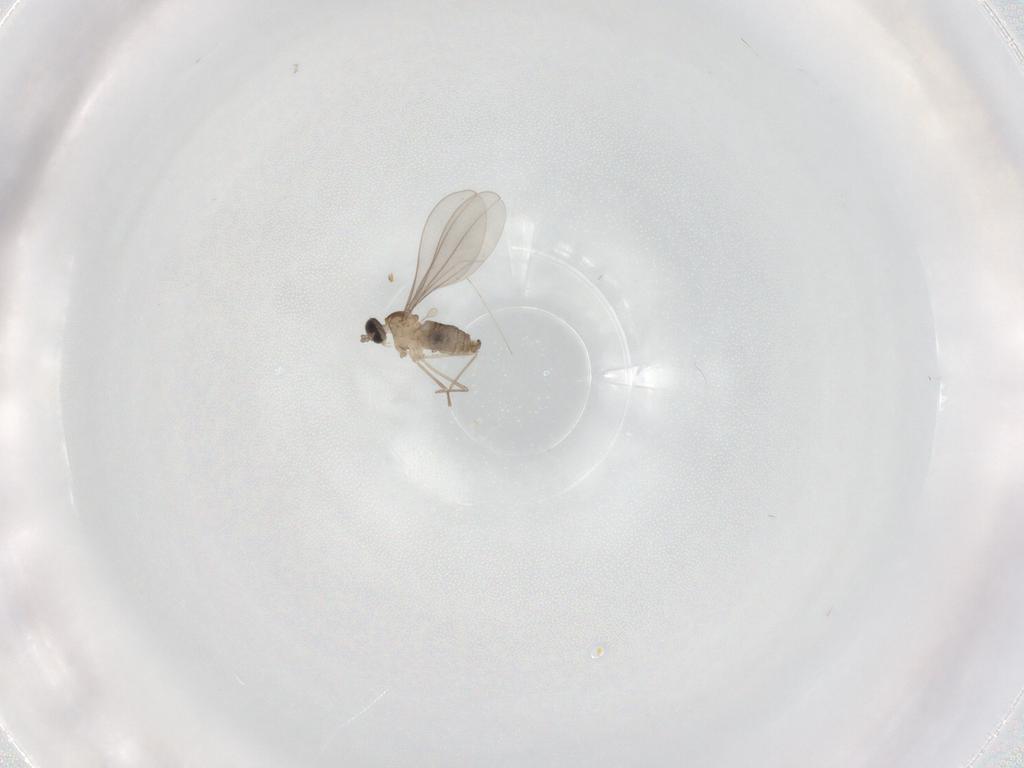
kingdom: Animalia
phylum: Arthropoda
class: Insecta
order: Diptera
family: Cecidomyiidae
